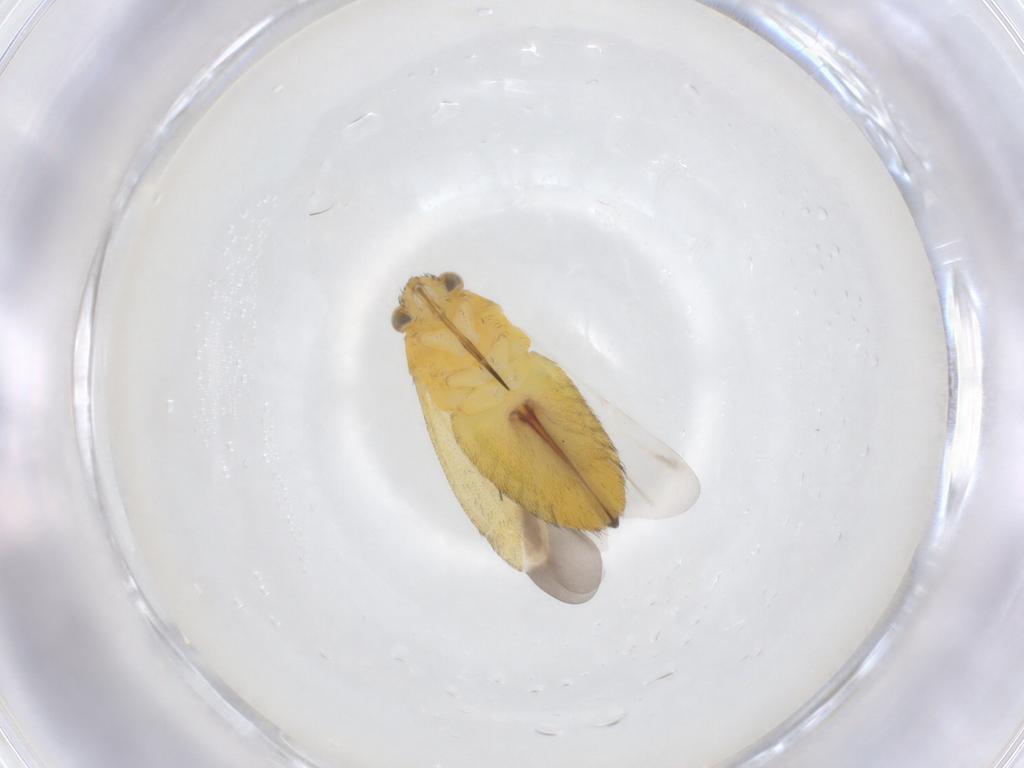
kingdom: Animalia
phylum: Arthropoda
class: Insecta
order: Hemiptera
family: Miridae
